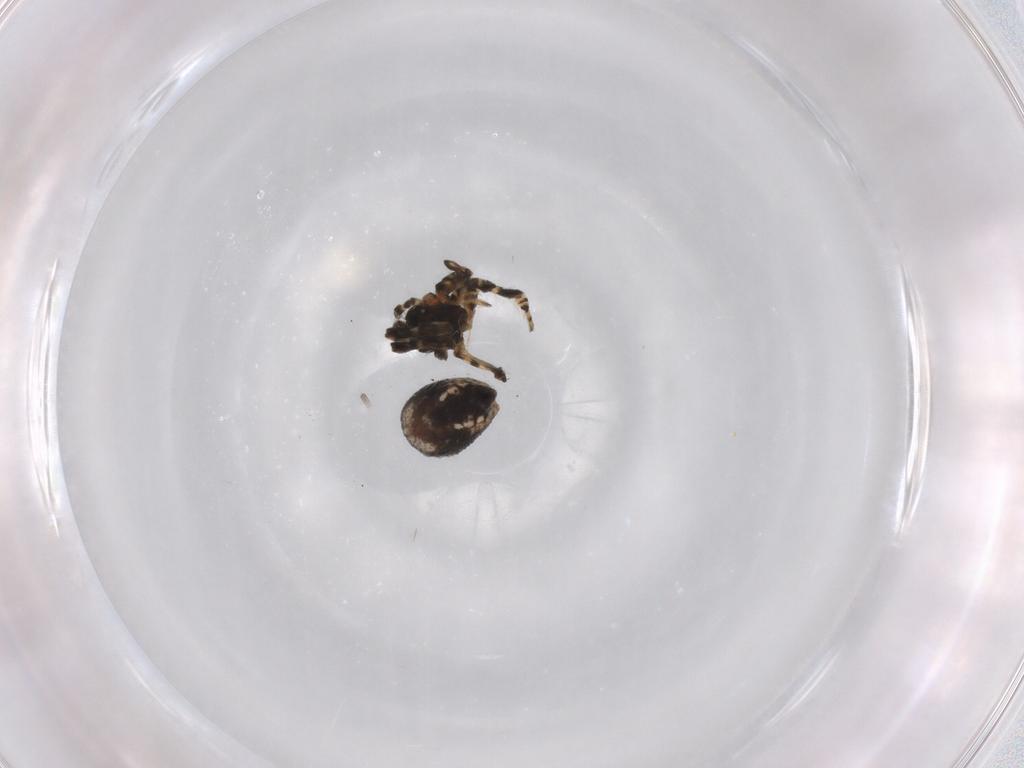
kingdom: Animalia
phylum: Arthropoda
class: Arachnida
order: Araneae
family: Araneidae
